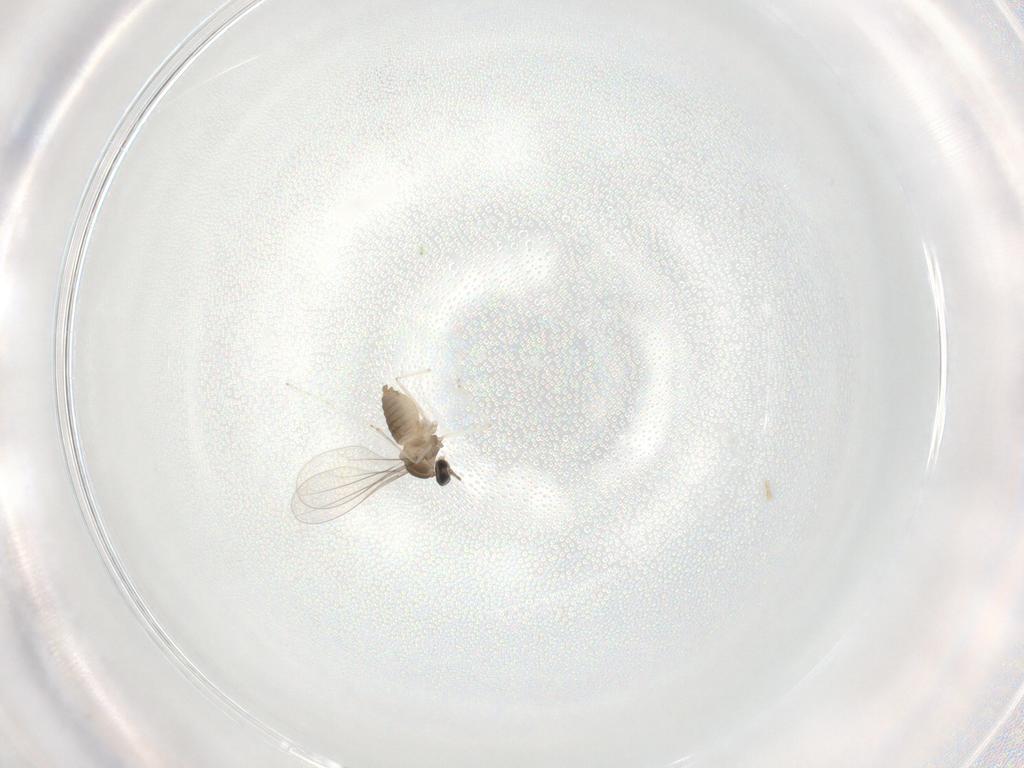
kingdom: Animalia
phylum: Arthropoda
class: Insecta
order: Diptera
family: Cecidomyiidae
